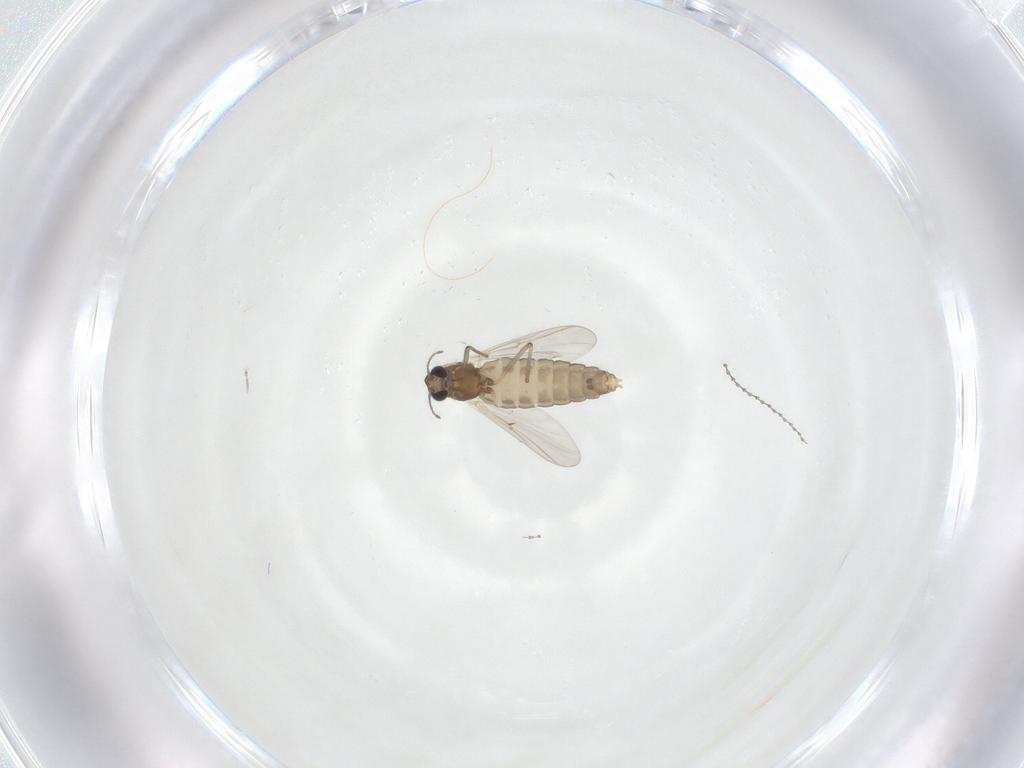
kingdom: Animalia
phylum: Arthropoda
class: Insecta
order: Diptera
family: Chironomidae
